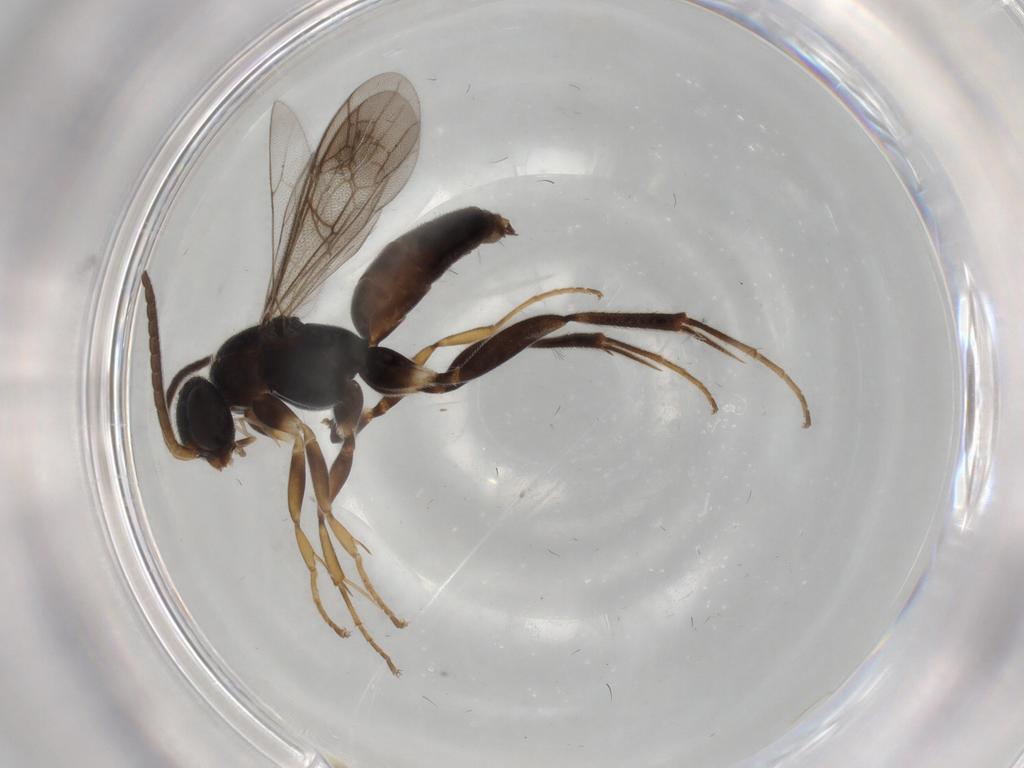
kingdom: Animalia
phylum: Arthropoda
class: Insecta
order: Hymenoptera
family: Pompilidae
